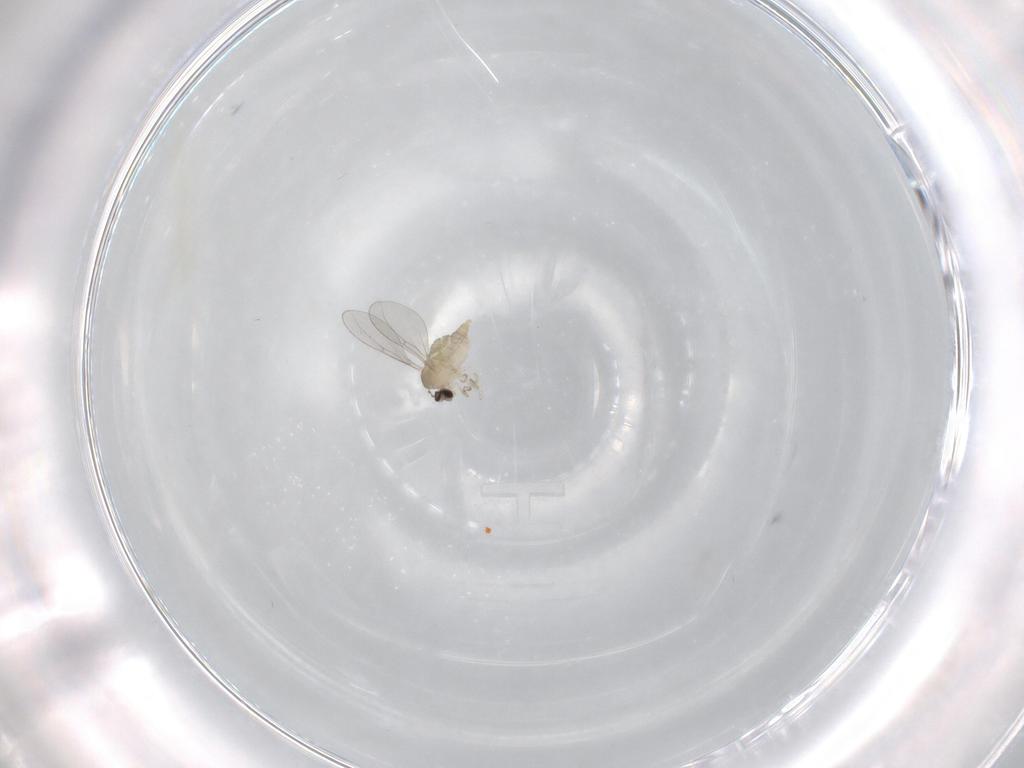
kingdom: Animalia
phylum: Arthropoda
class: Insecta
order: Diptera
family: Cecidomyiidae
